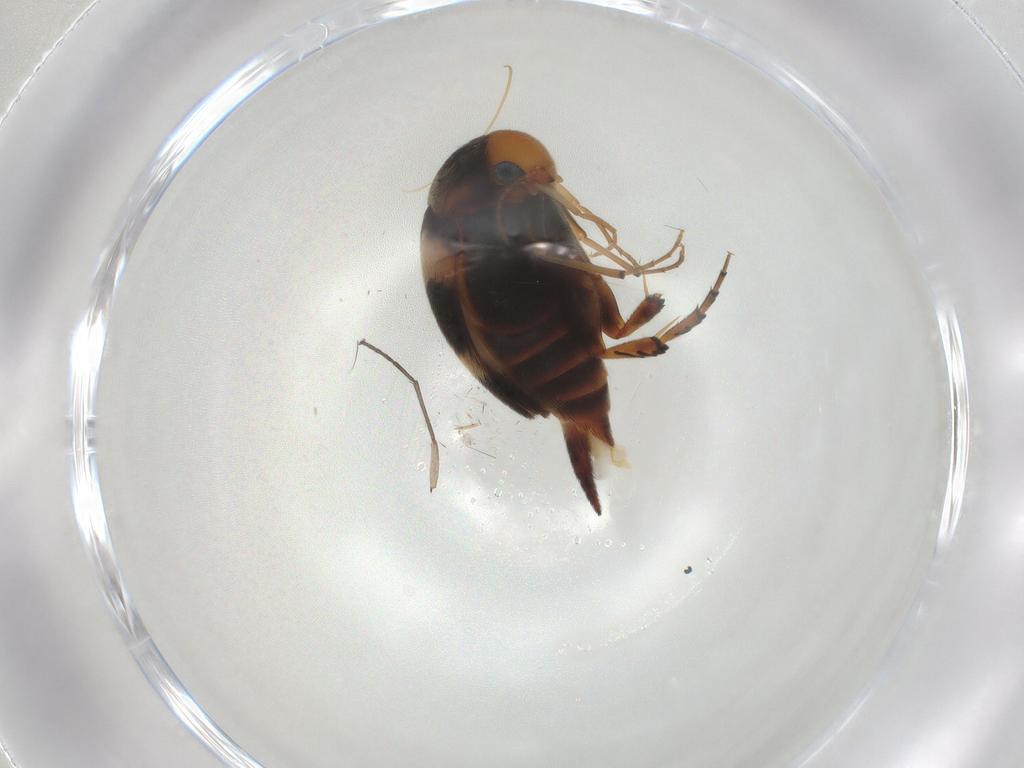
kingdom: Animalia
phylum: Arthropoda
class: Insecta
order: Coleoptera
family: Mordellidae
